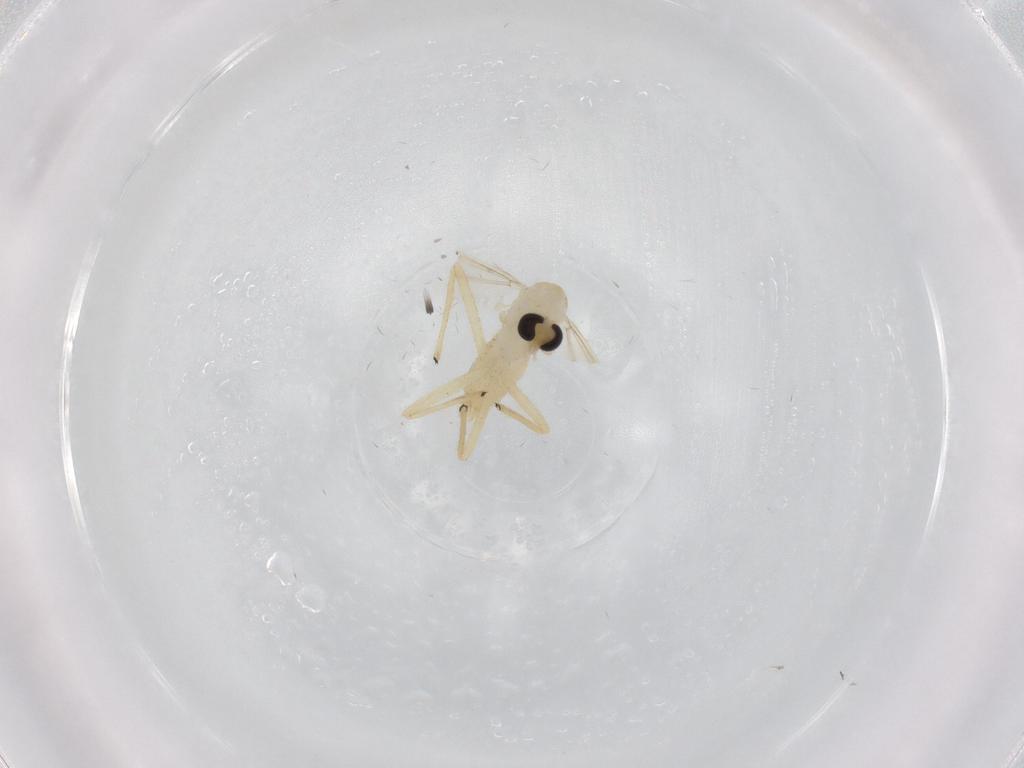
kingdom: Animalia
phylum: Arthropoda
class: Insecta
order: Diptera
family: Chironomidae
